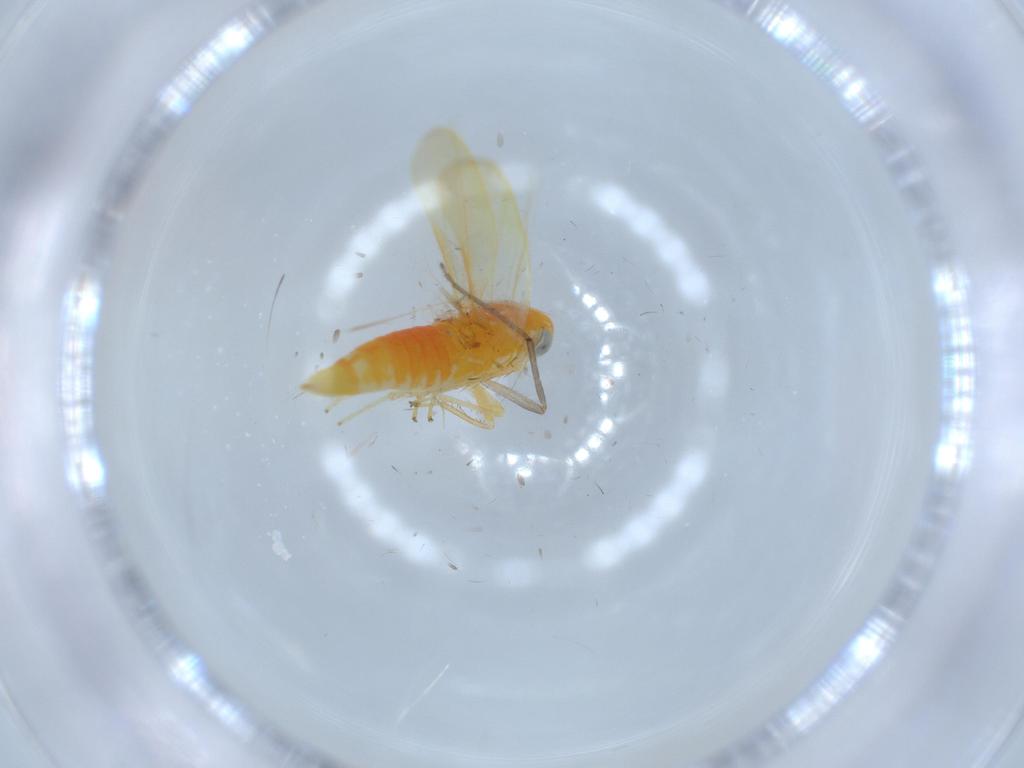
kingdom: Animalia
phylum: Arthropoda
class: Insecta
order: Hemiptera
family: Cicadellidae
